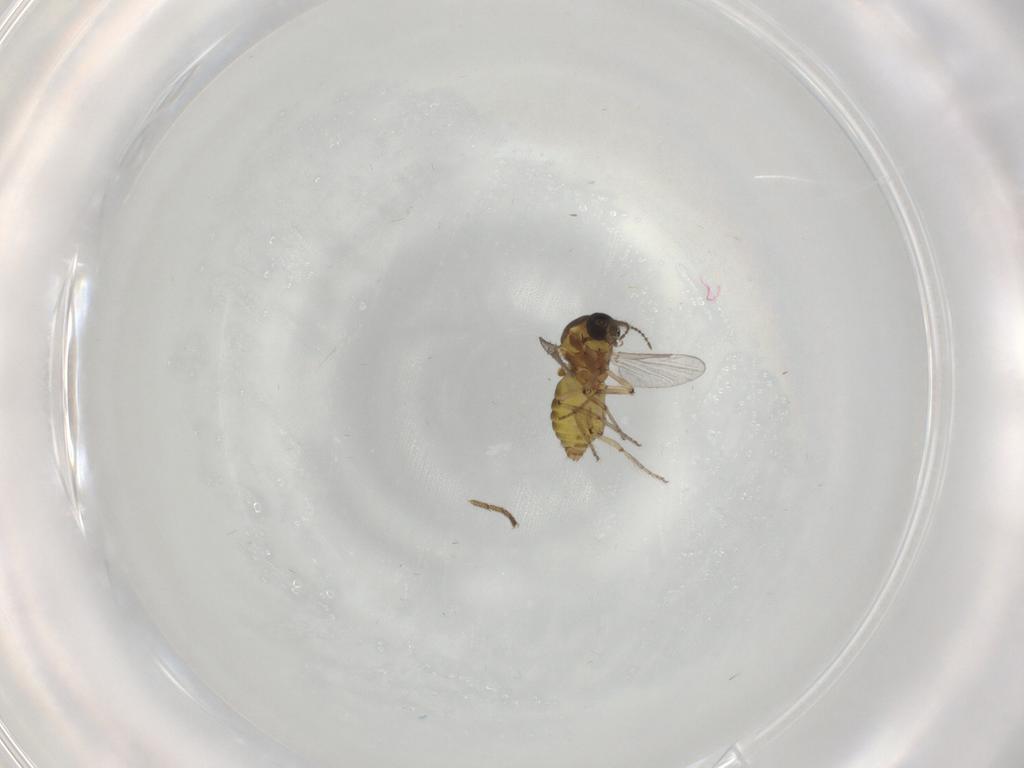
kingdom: Animalia
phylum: Arthropoda
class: Insecta
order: Diptera
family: Ceratopogonidae
